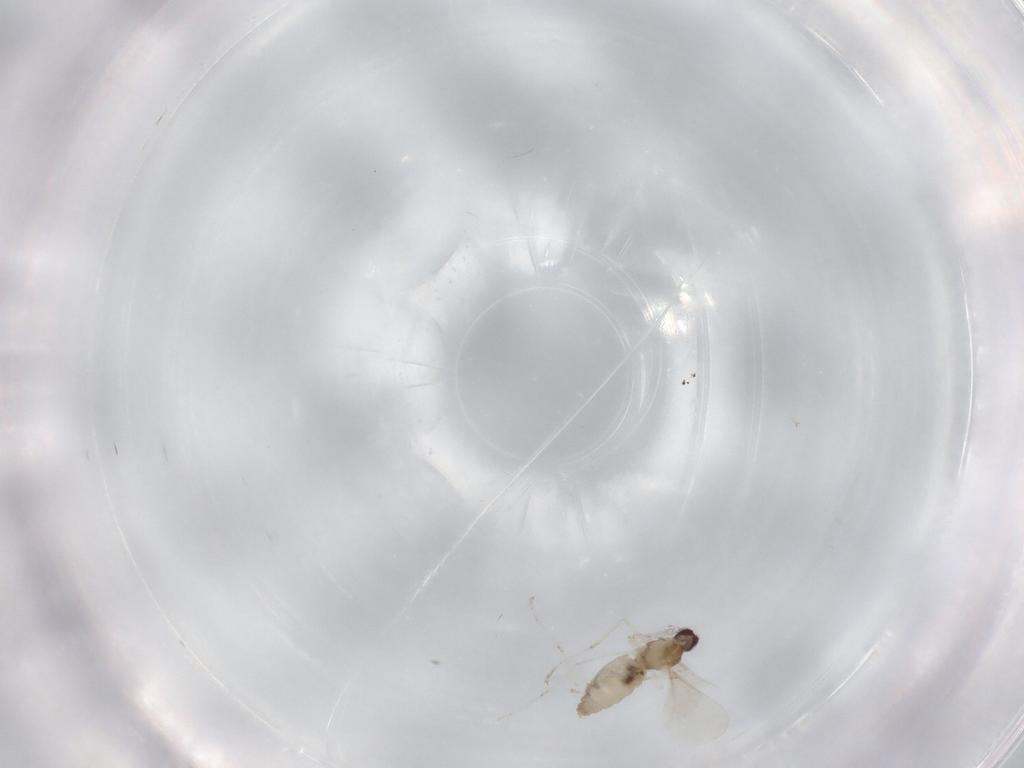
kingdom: Animalia
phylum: Arthropoda
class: Insecta
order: Diptera
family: Cecidomyiidae
